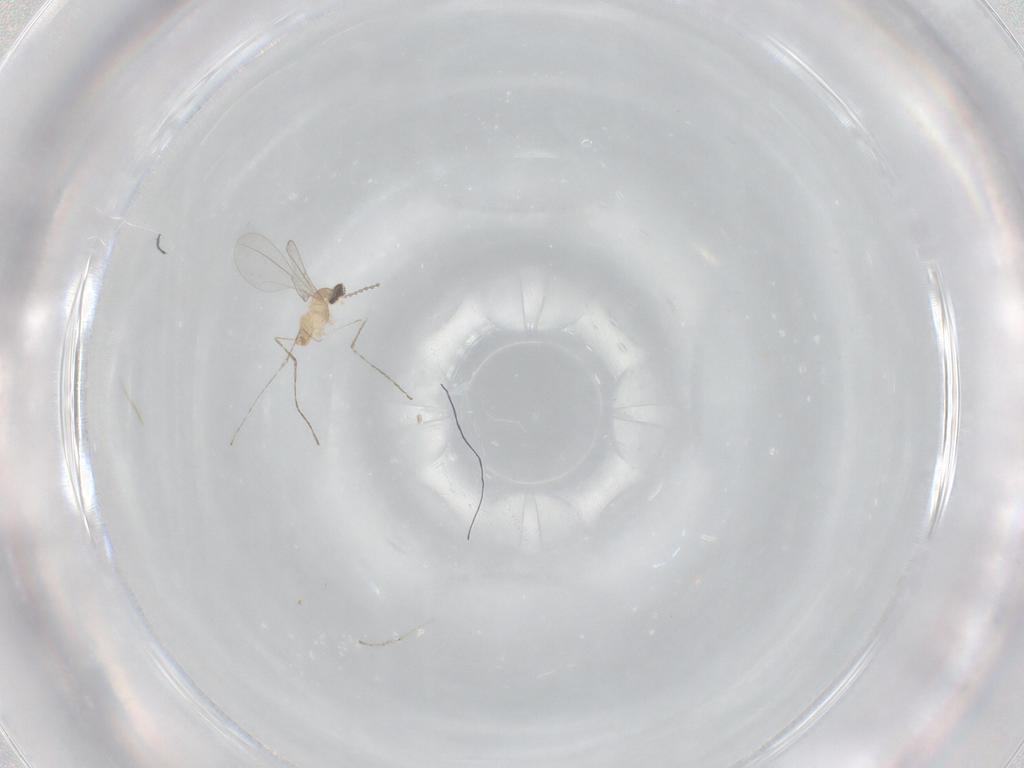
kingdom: Animalia
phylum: Arthropoda
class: Insecta
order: Diptera
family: Cecidomyiidae
